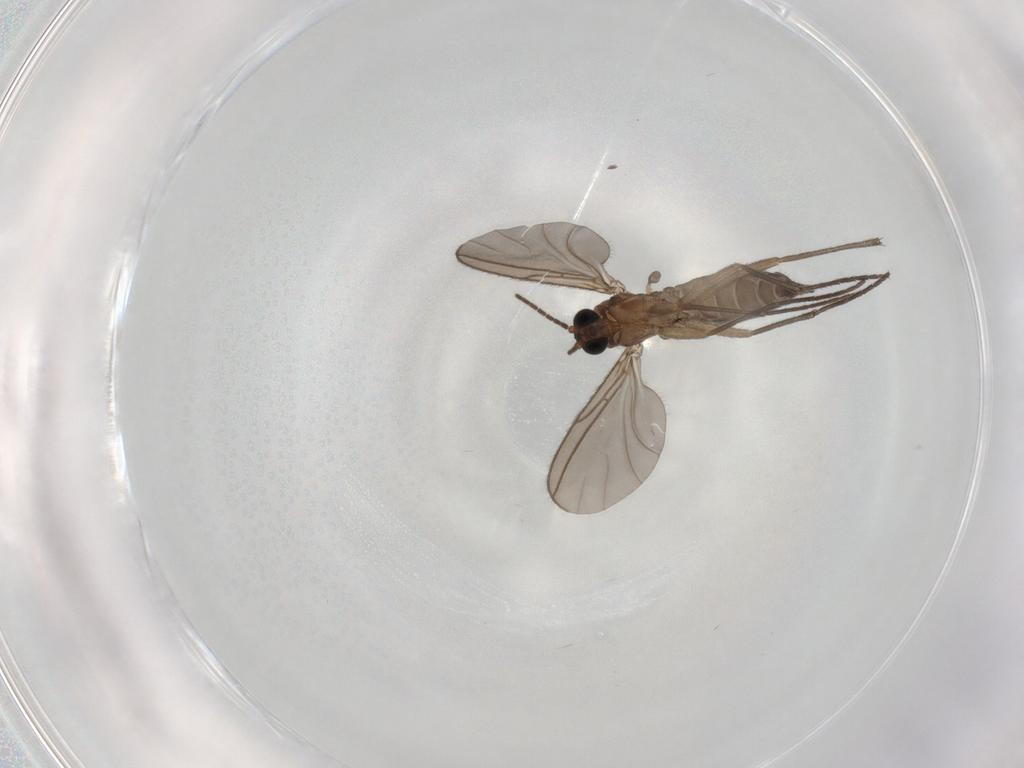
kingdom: Animalia
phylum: Arthropoda
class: Insecta
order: Diptera
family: Sciaridae
